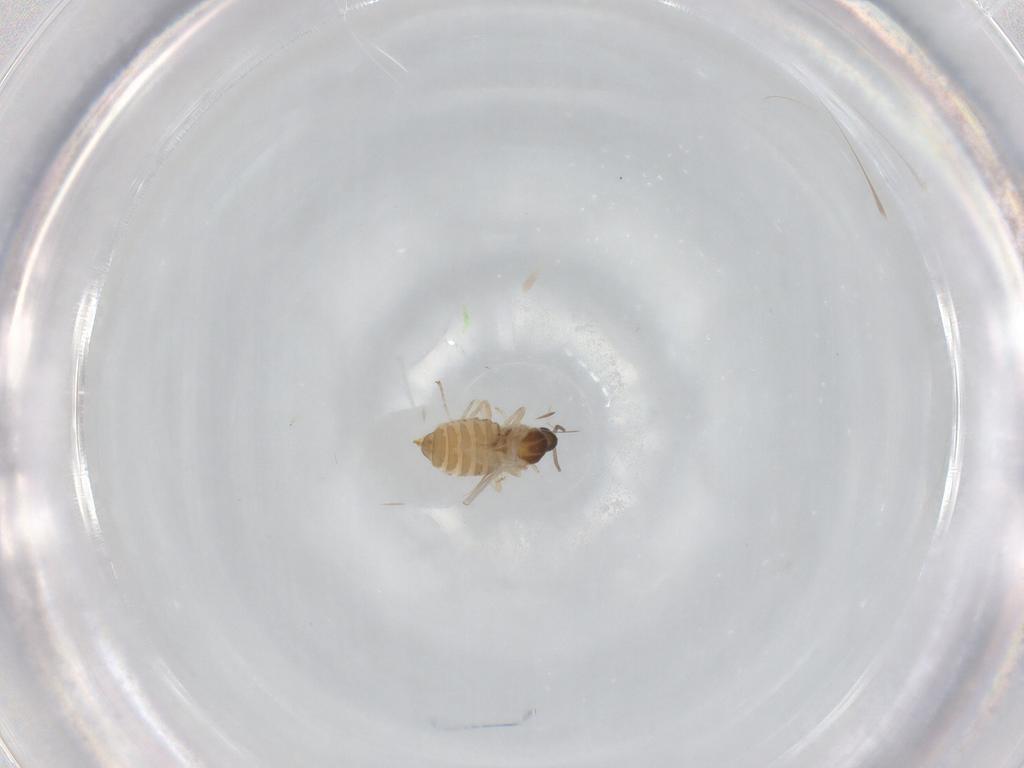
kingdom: Animalia
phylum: Arthropoda
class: Insecta
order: Diptera
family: Cecidomyiidae
